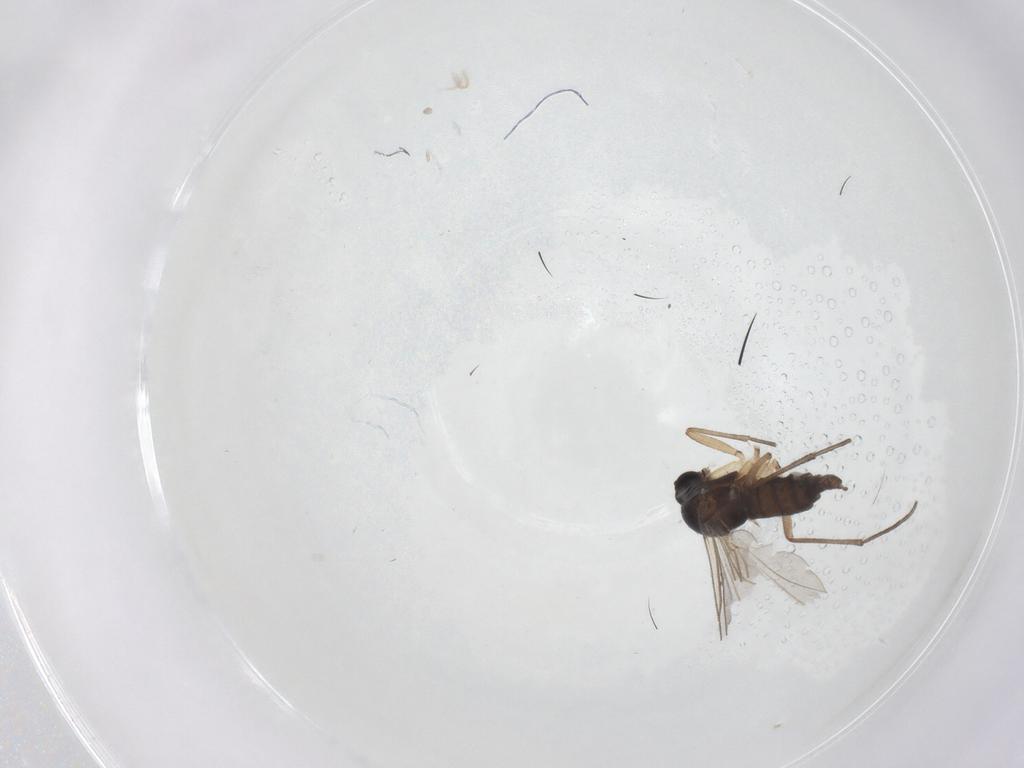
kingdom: Animalia
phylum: Arthropoda
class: Insecta
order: Diptera
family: Sciaridae
